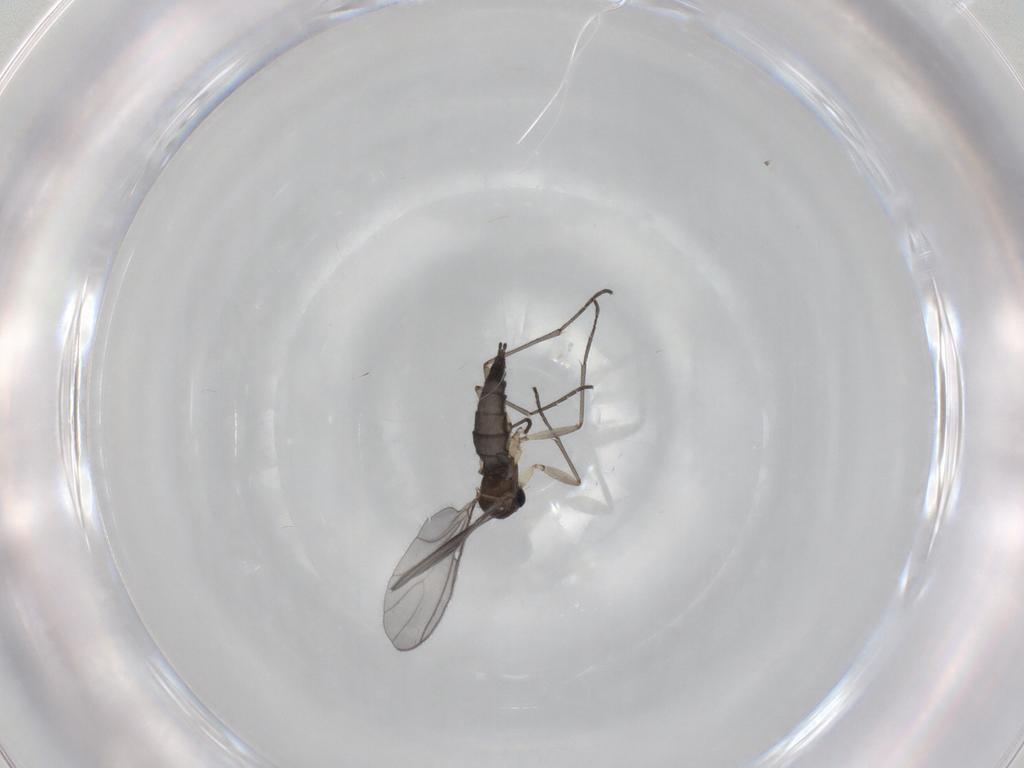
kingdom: Animalia
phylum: Arthropoda
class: Insecta
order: Diptera
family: Sciaridae
